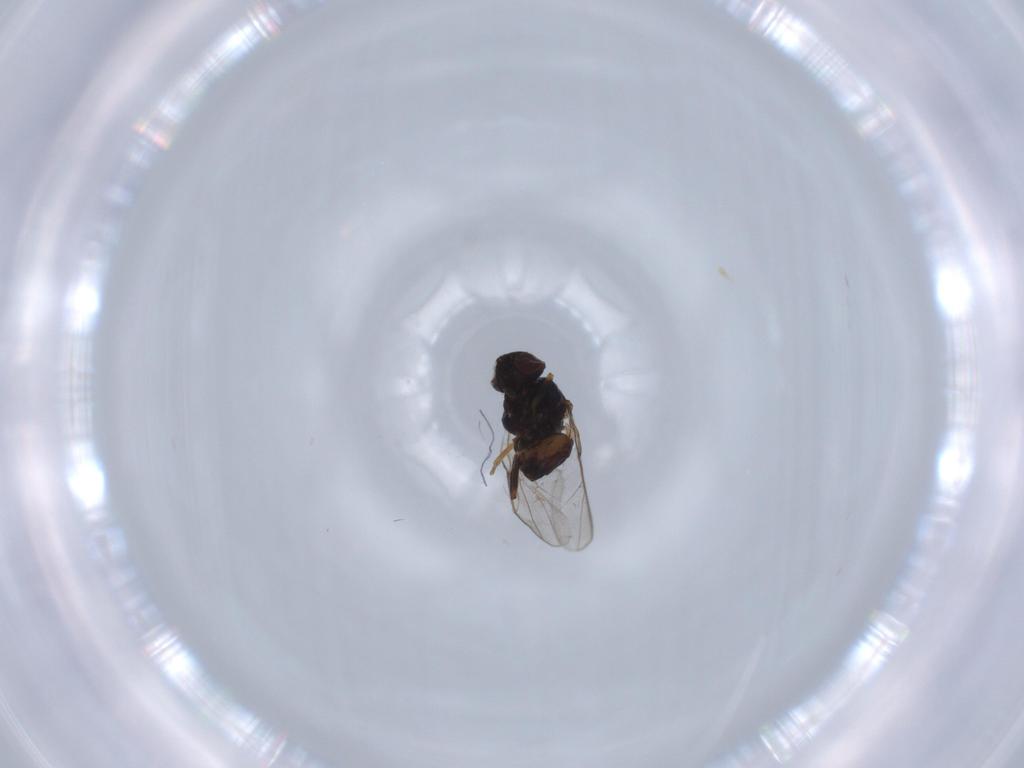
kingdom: Animalia
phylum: Arthropoda
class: Insecta
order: Diptera
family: Chloropidae
